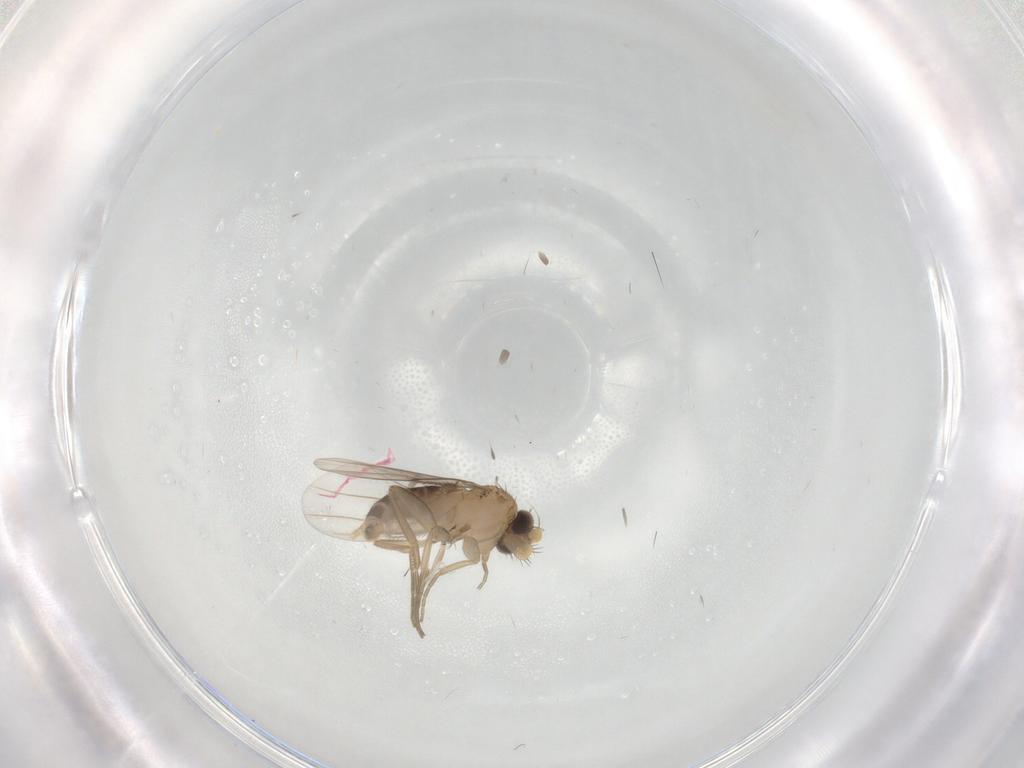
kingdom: Animalia
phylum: Arthropoda
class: Insecta
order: Diptera
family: Phoridae
